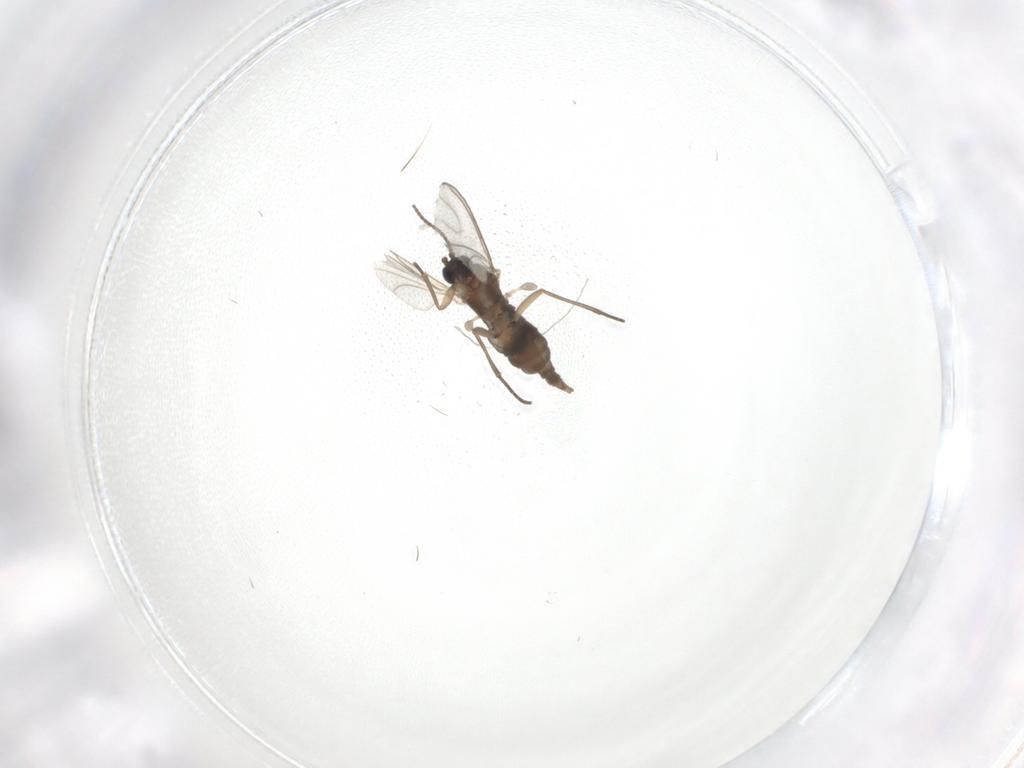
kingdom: Animalia
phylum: Arthropoda
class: Insecta
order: Diptera
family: Sciaridae
